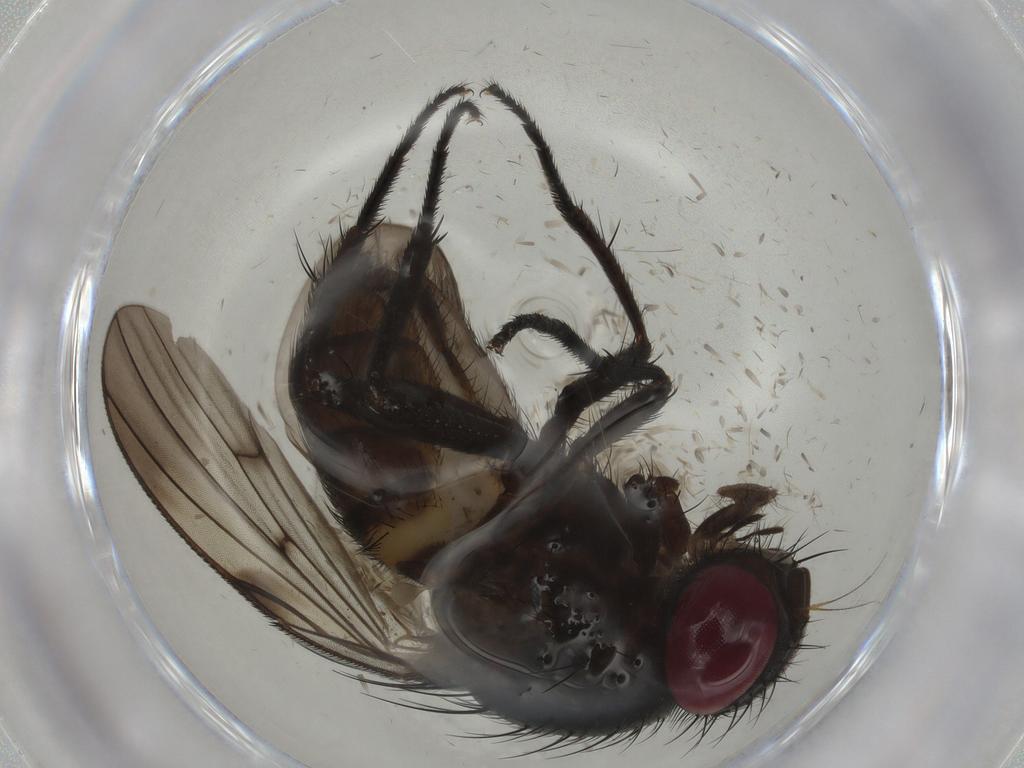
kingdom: Animalia
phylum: Arthropoda
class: Insecta
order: Diptera
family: Fanniidae
